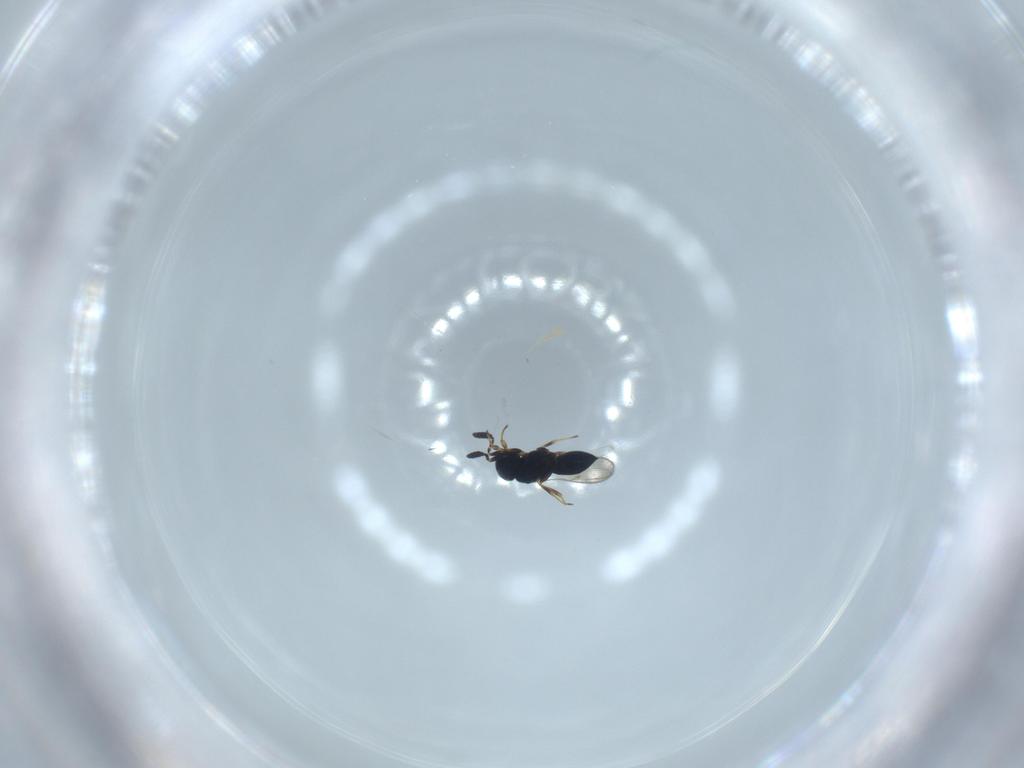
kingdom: Animalia
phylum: Arthropoda
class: Insecta
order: Hymenoptera
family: Scelionidae
